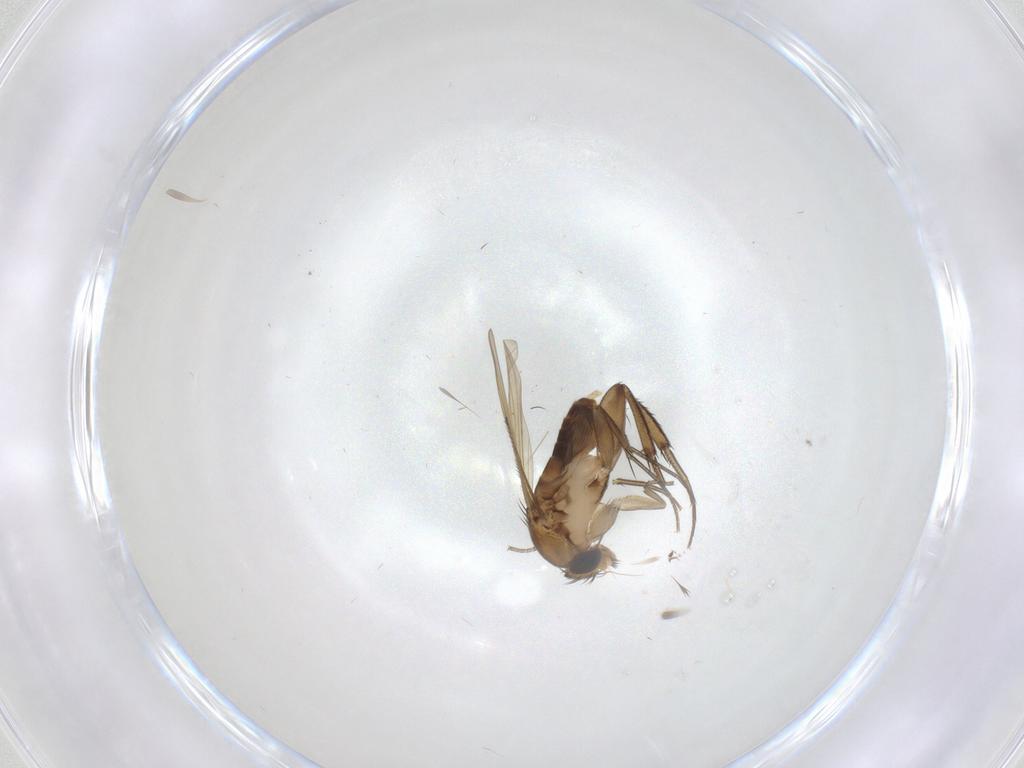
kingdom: Animalia
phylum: Arthropoda
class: Insecta
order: Diptera
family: Phoridae
